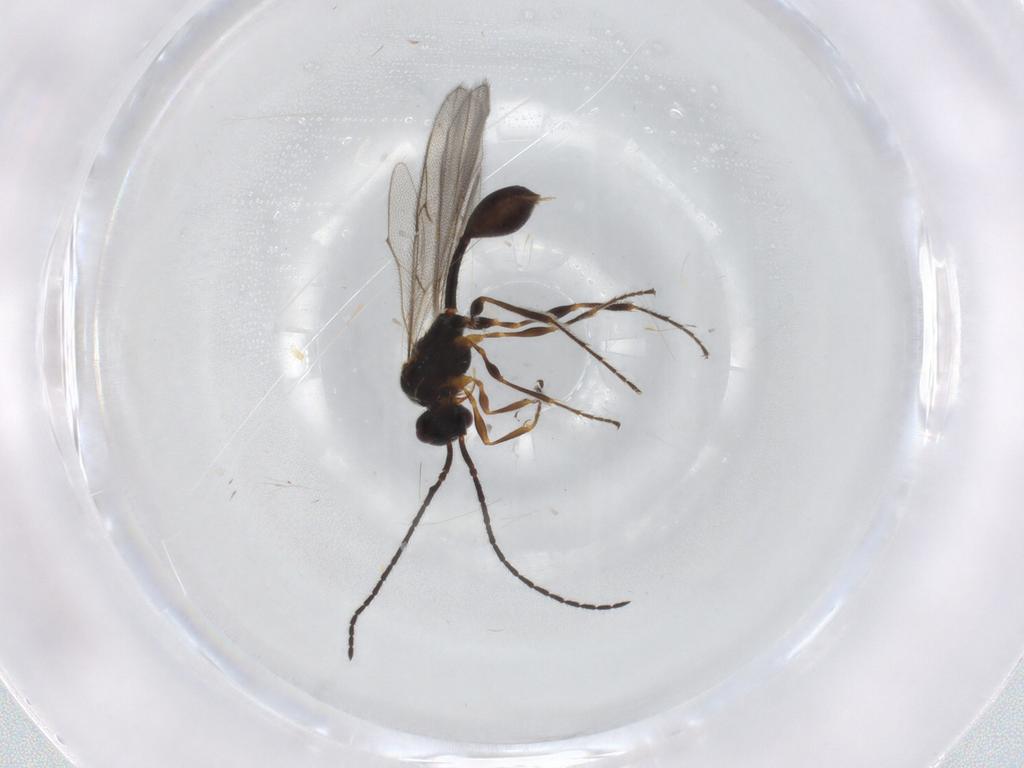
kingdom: Animalia
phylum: Arthropoda
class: Insecta
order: Hymenoptera
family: Diapriidae
